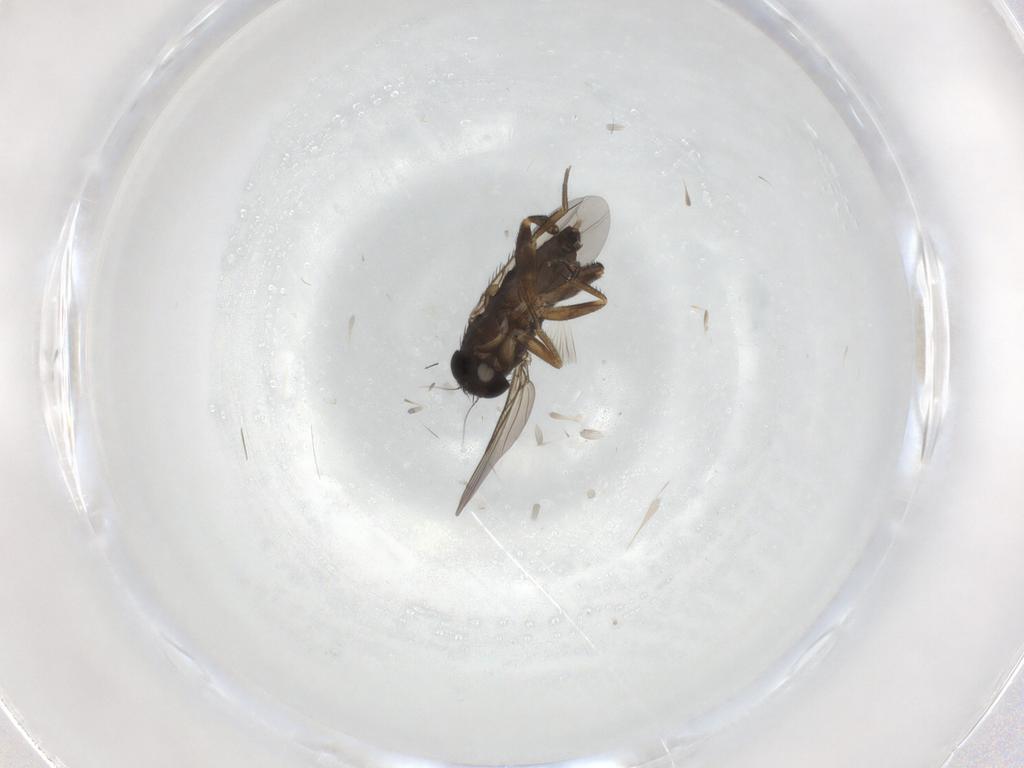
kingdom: Animalia
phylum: Arthropoda
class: Insecta
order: Diptera
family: Phoridae
